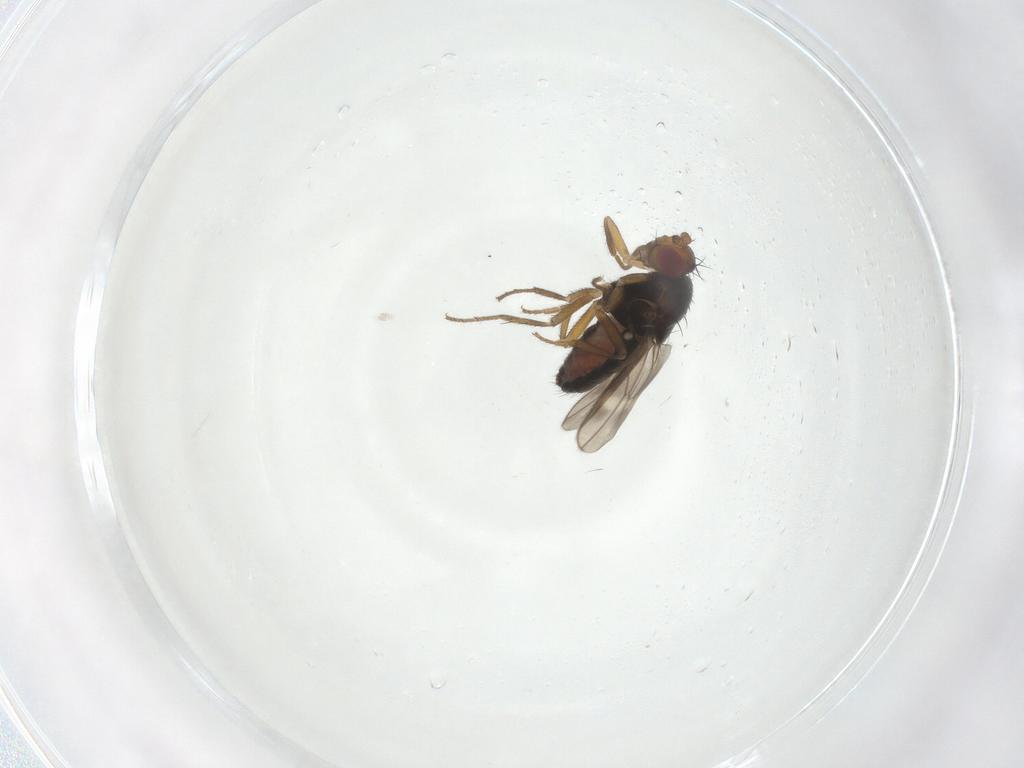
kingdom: Animalia
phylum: Arthropoda
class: Insecta
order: Diptera
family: Sphaeroceridae
